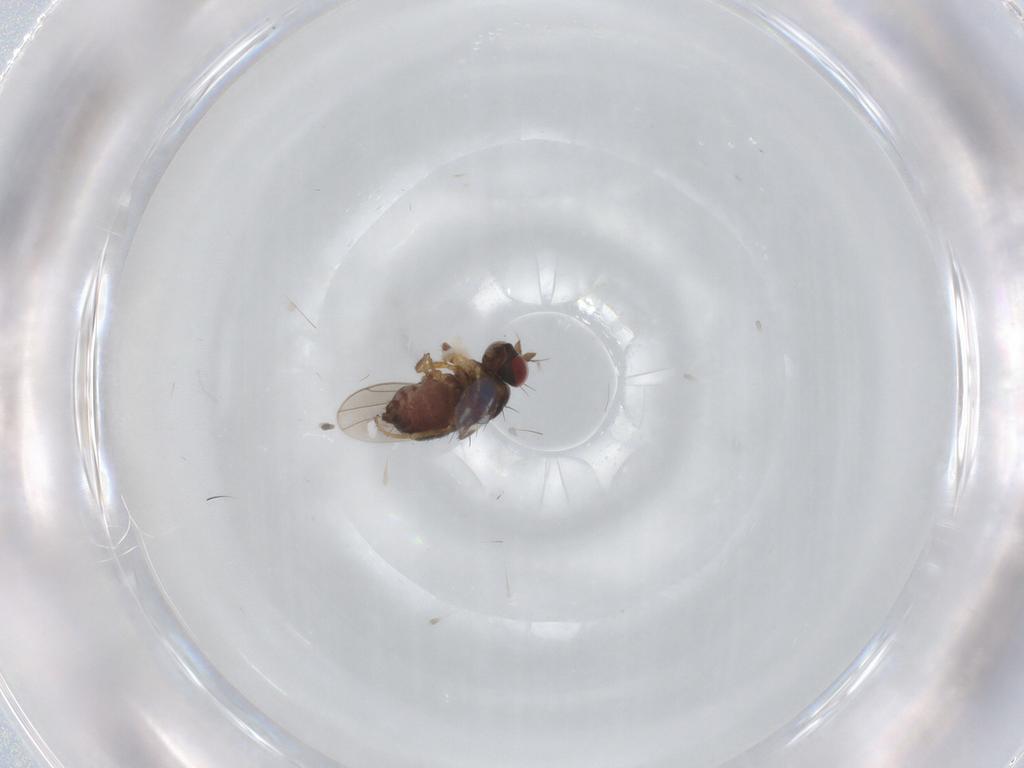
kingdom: Animalia
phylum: Arthropoda
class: Insecta
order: Diptera
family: Ephydridae
